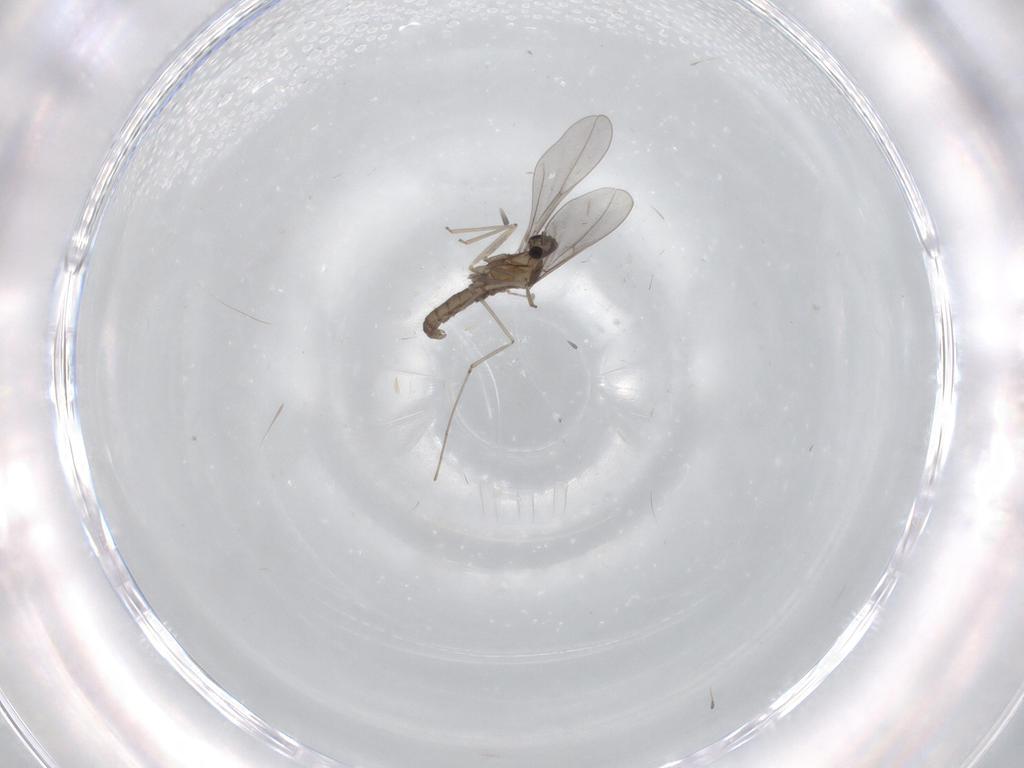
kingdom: Animalia
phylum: Arthropoda
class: Insecta
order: Diptera
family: Cecidomyiidae
